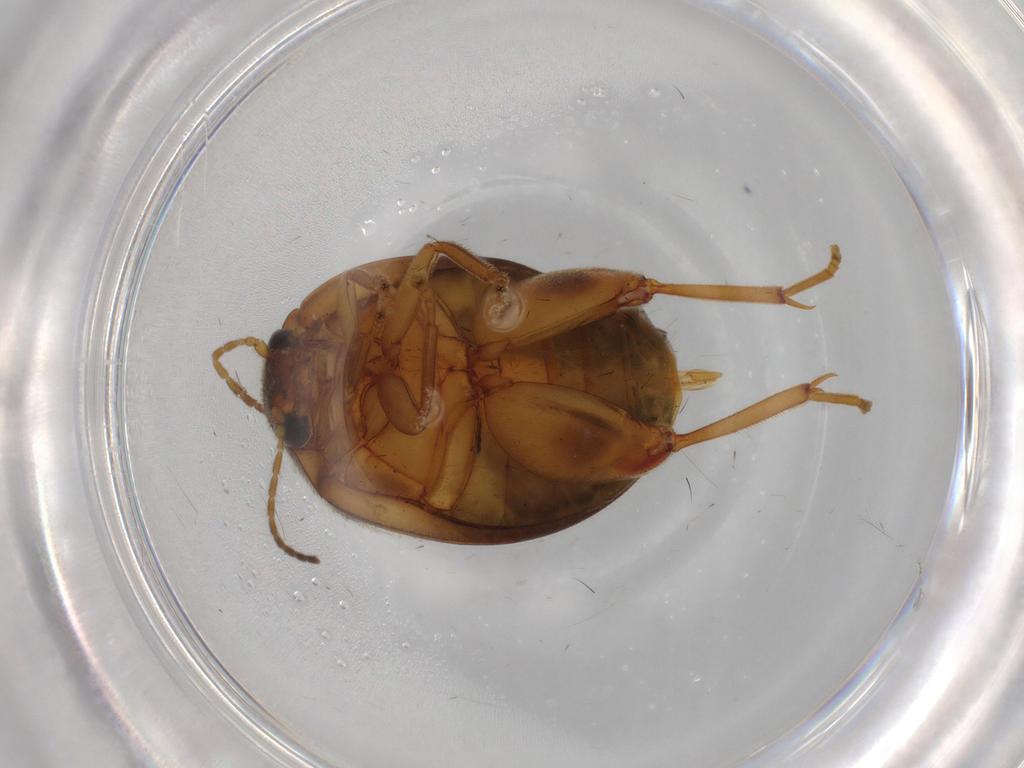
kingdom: Animalia
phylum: Arthropoda
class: Insecta
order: Coleoptera
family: Scirtidae
